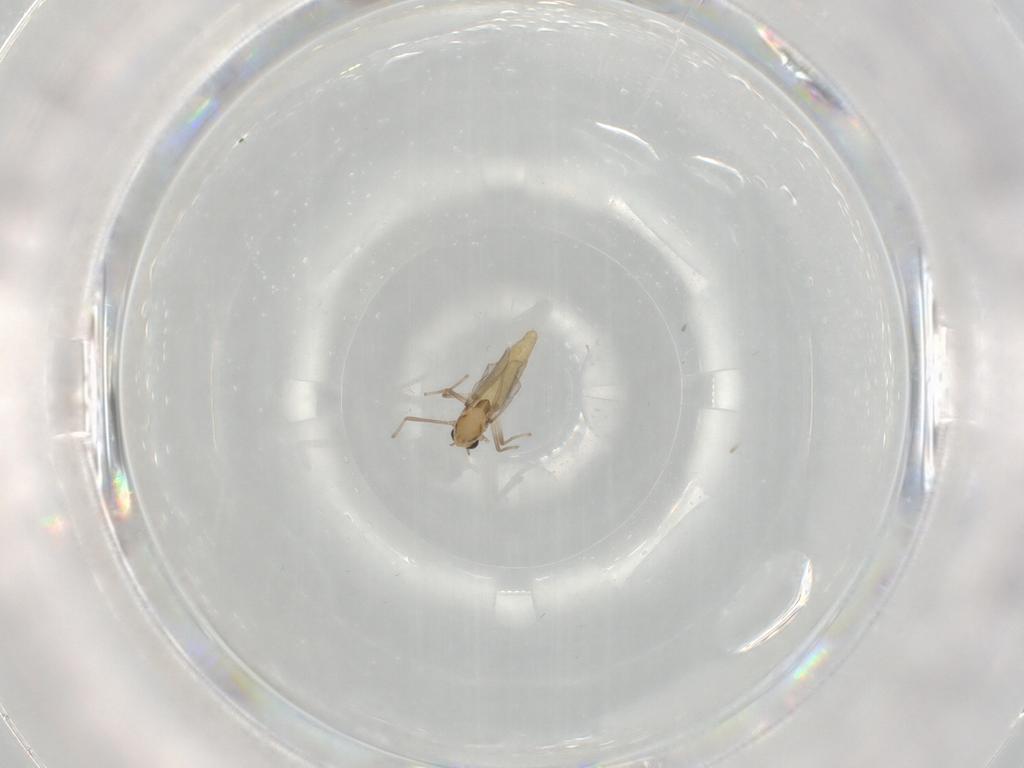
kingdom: Animalia
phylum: Arthropoda
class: Insecta
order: Diptera
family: Chironomidae
